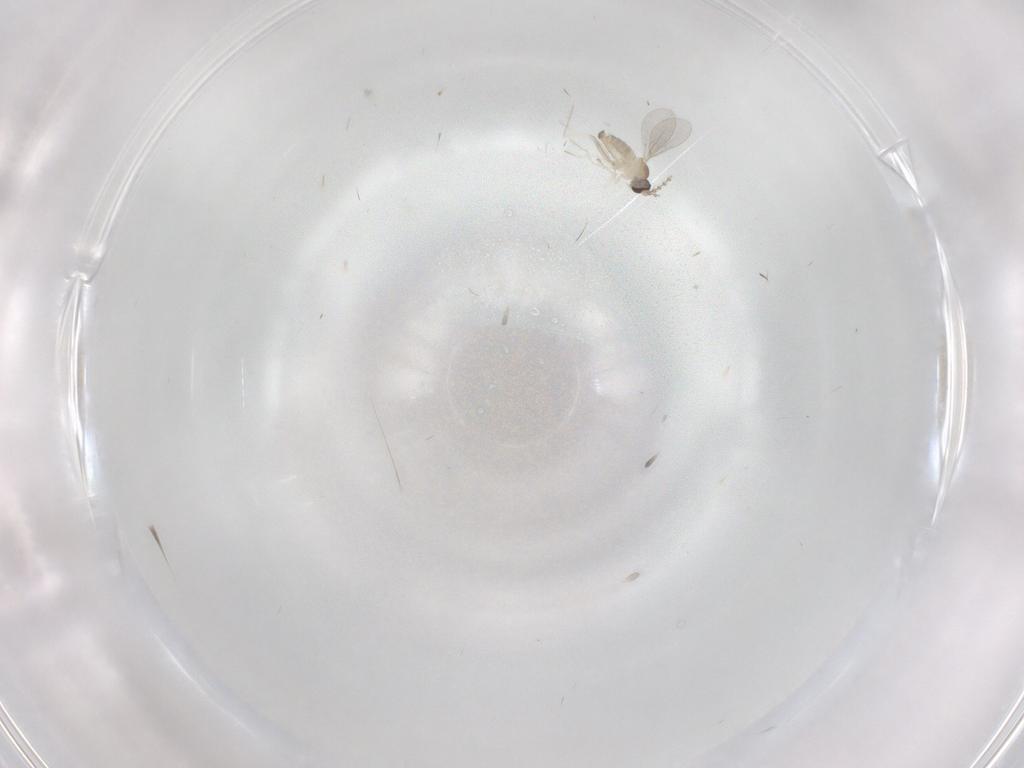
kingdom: Animalia
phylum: Arthropoda
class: Insecta
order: Diptera
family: Cecidomyiidae
